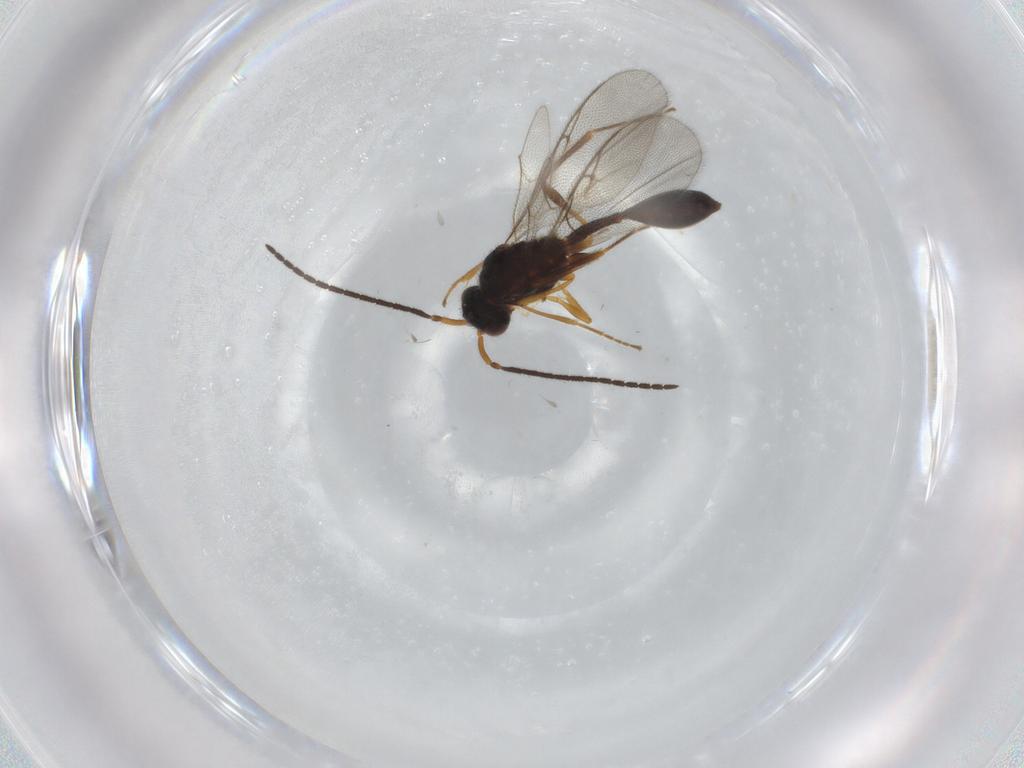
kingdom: Animalia
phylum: Arthropoda
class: Insecta
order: Hymenoptera
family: Diapriidae
